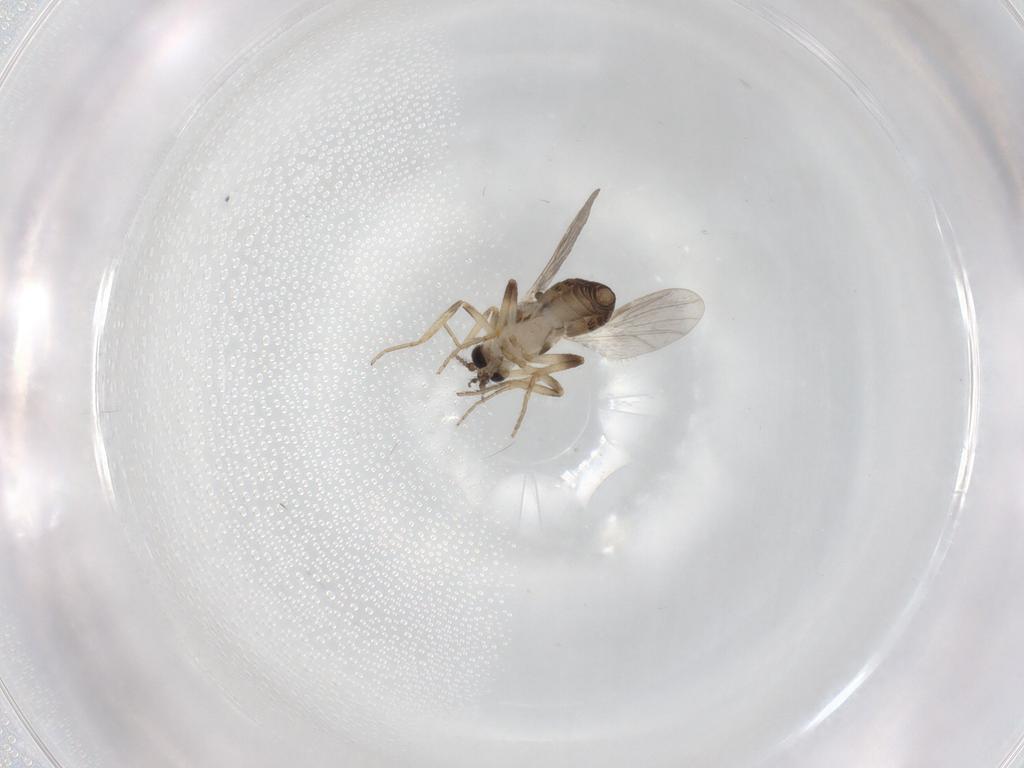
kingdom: Animalia
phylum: Arthropoda
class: Insecta
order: Diptera
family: Ceratopogonidae
